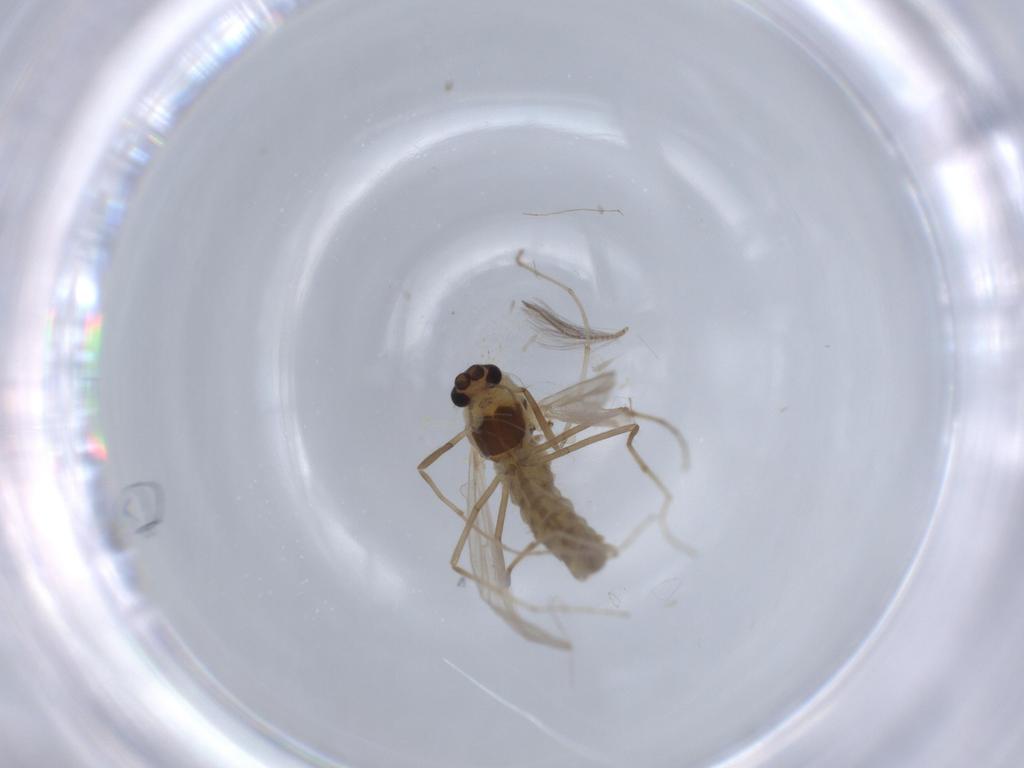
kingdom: Animalia
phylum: Arthropoda
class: Insecta
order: Diptera
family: Chironomidae
